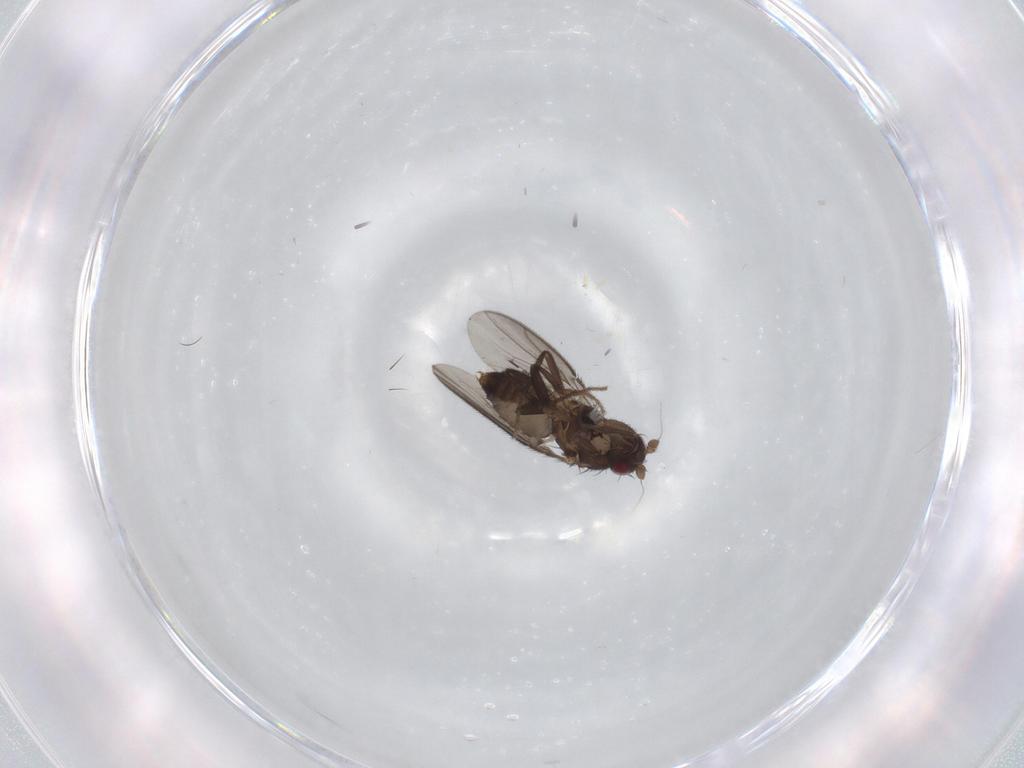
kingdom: Animalia
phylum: Arthropoda
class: Insecta
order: Diptera
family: Sphaeroceridae
